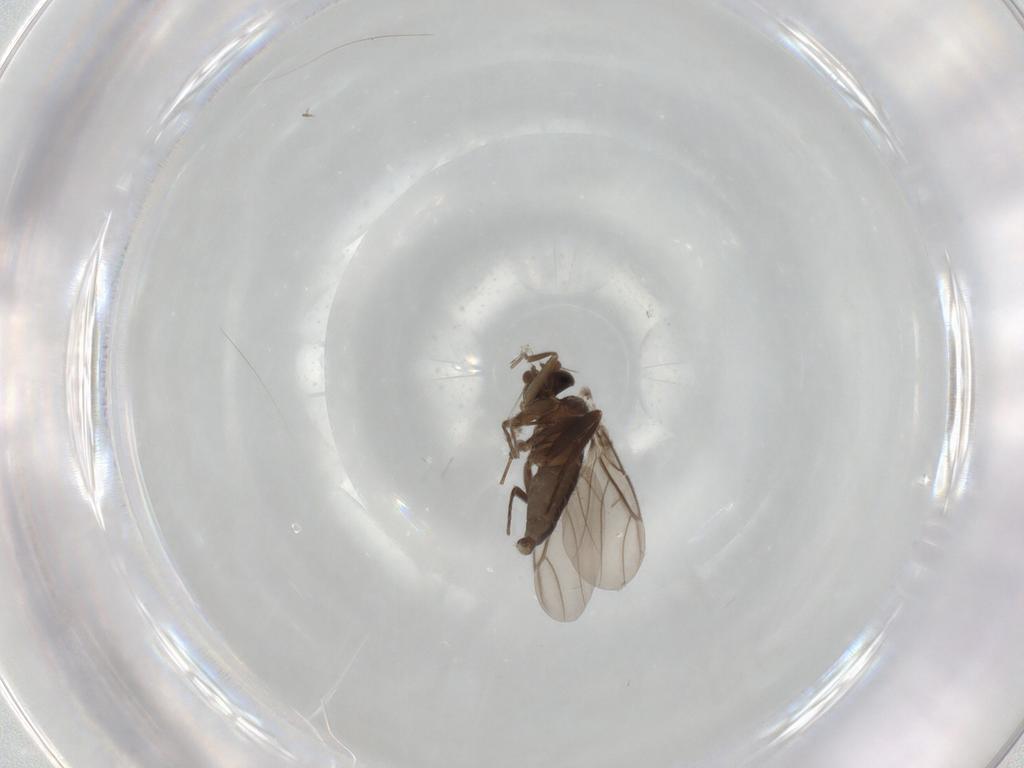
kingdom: Animalia
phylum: Arthropoda
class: Insecta
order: Diptera
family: Sciaridae
